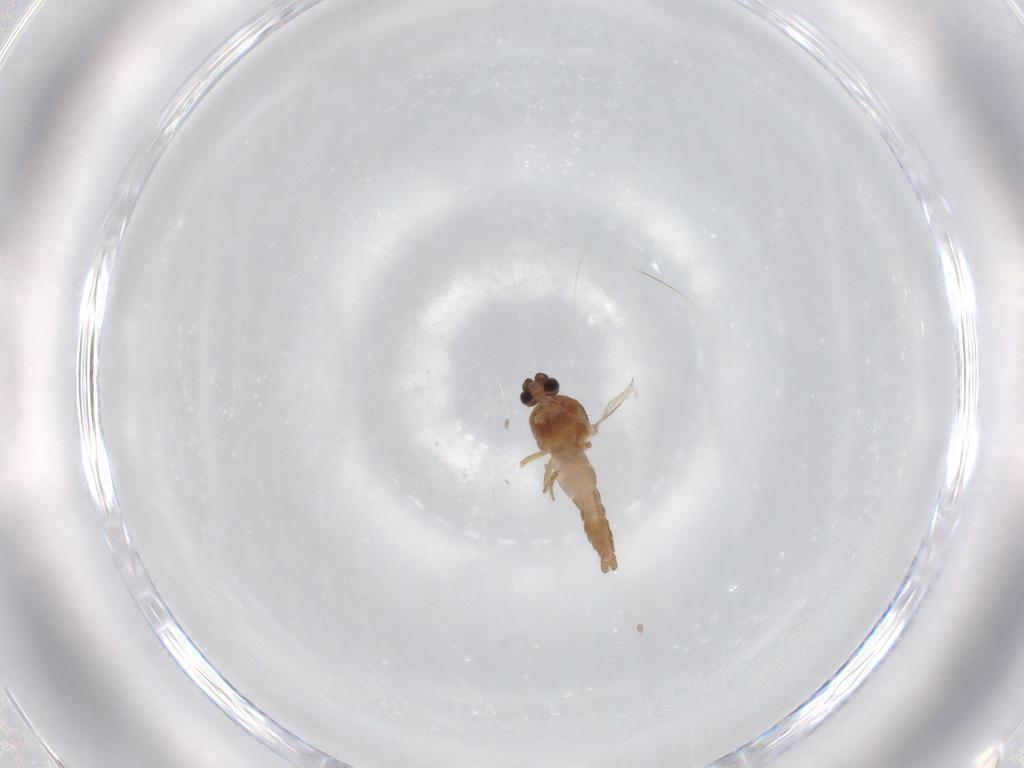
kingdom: Animalia
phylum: Arthropoda
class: Insecta
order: Diptera
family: Ceratopogonidae
